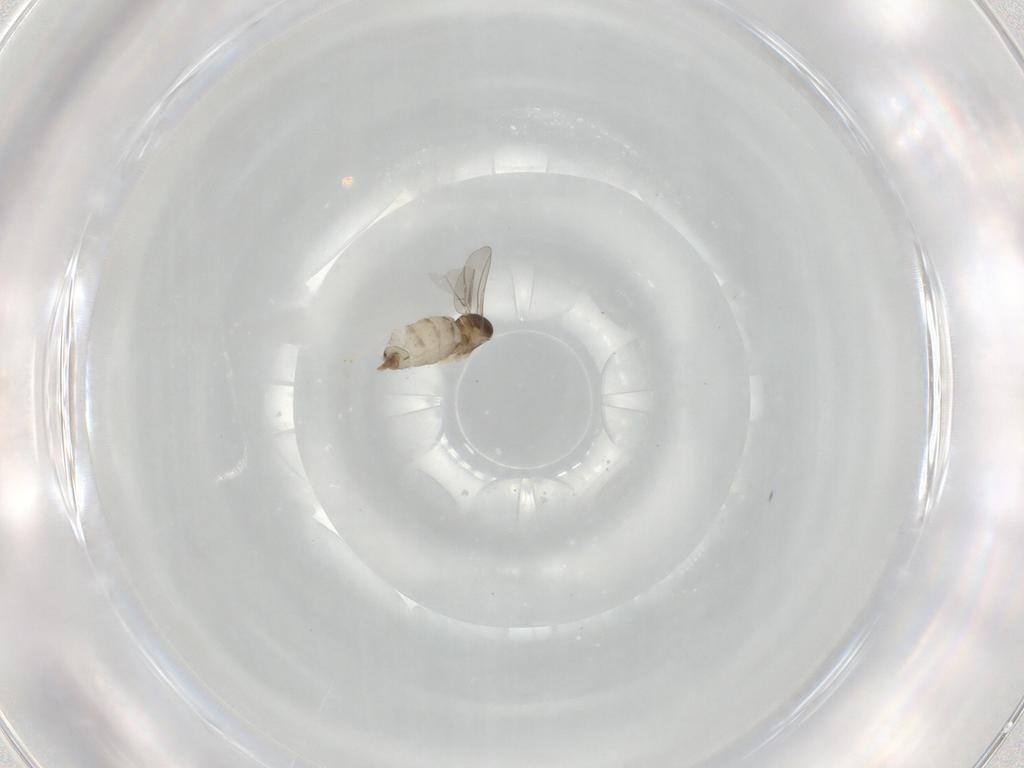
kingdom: Animalia
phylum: Arthropoda
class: Insecta
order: Diptera
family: Cecidomyiidae
